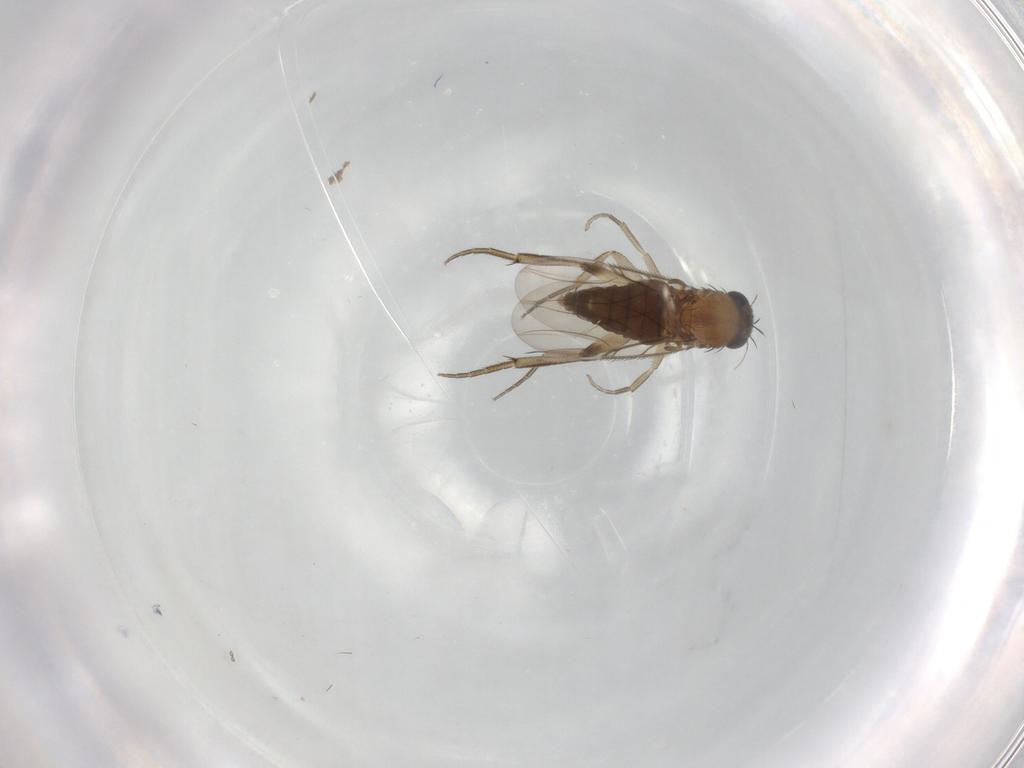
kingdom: Animalia
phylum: Arthropoda
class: Insecta
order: Diptera
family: Phoridae
